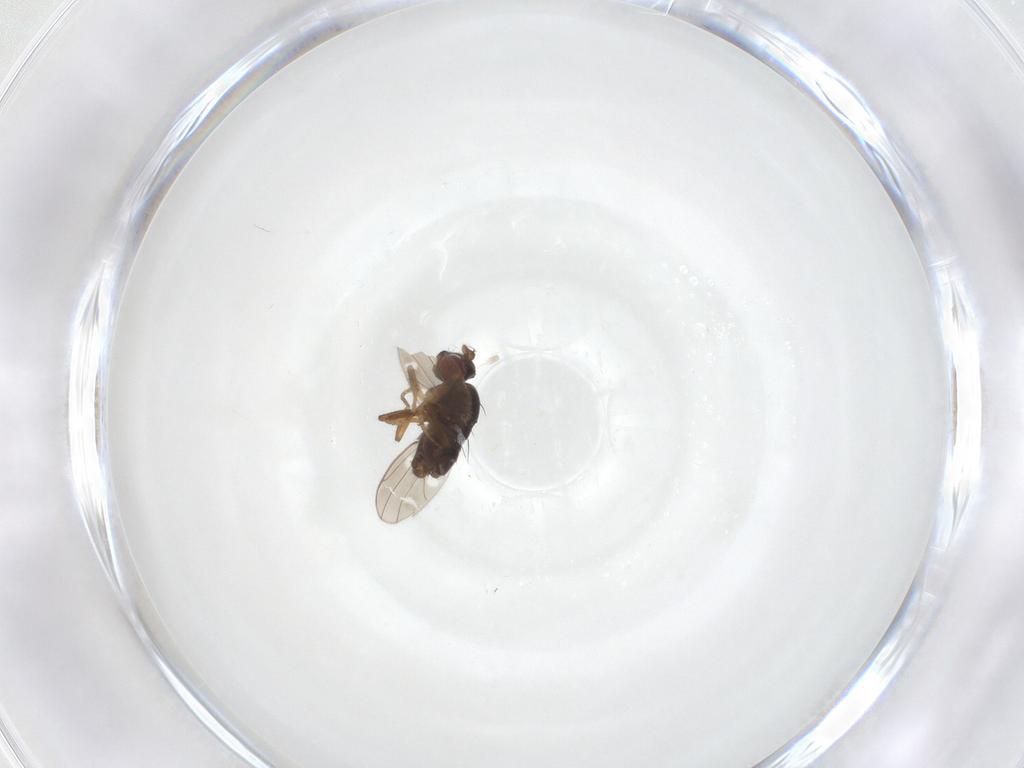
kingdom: Animalia
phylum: Arthropoda
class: Insecta
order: Diptera
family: Ephydridae
